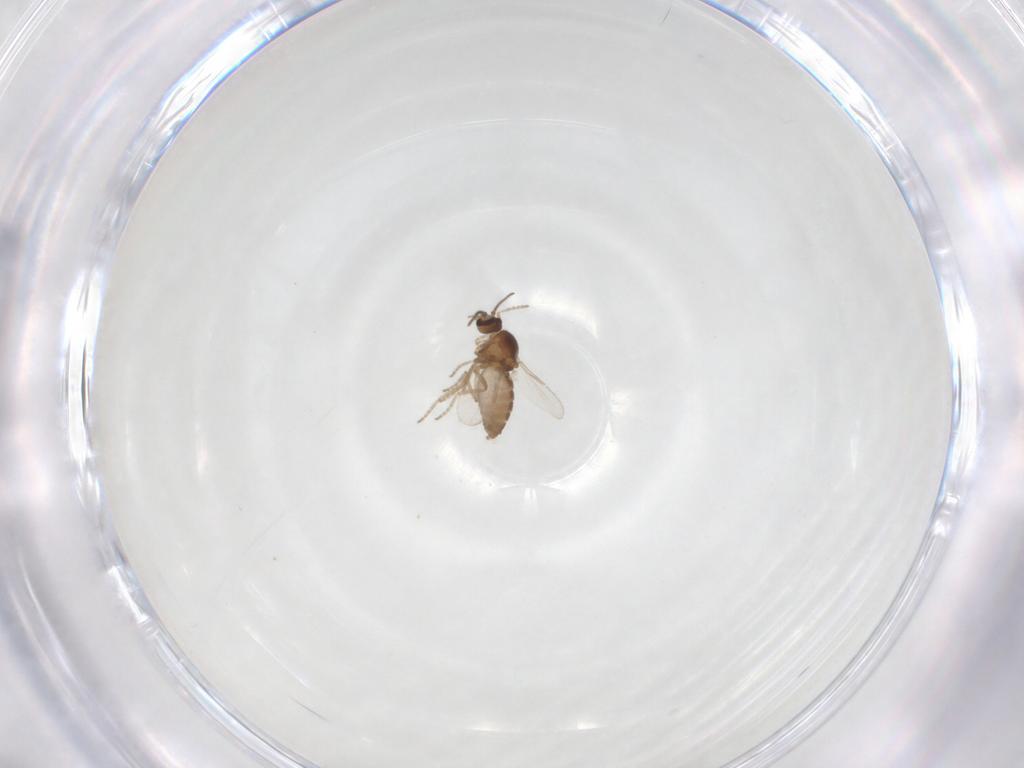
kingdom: Animalia
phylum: Arthropoda
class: Insecta
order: Diptera
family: Ceratopogonidae
